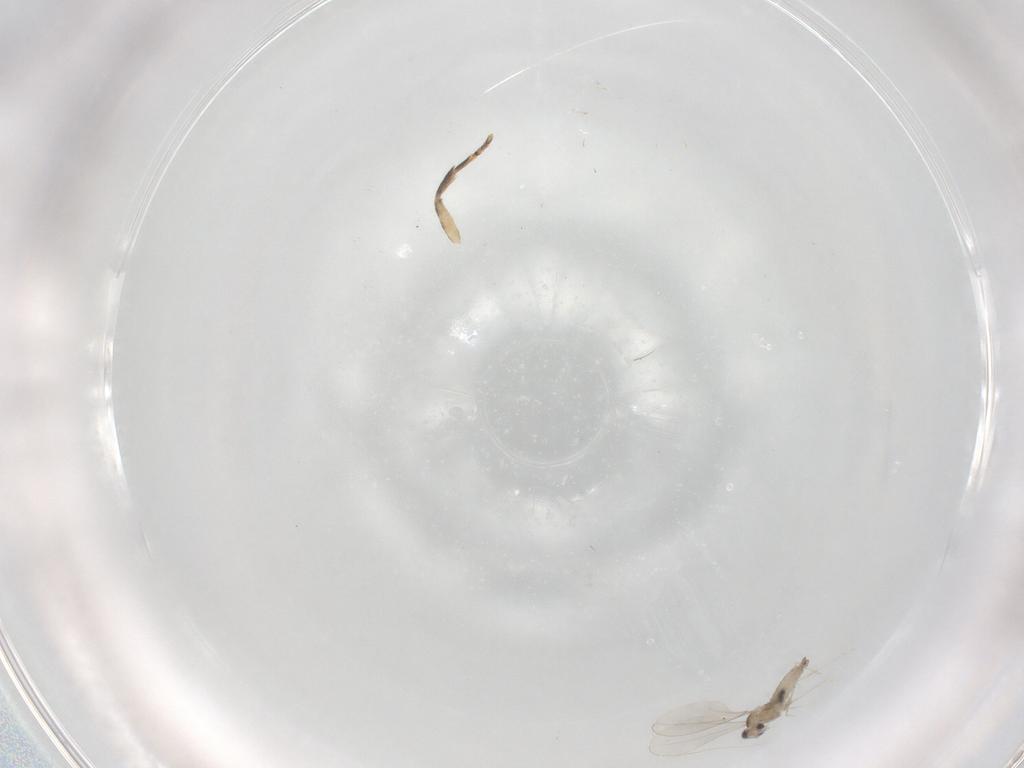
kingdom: Animalia
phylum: Arthropoda
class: Insecta
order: Diptera
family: Cecidomyiidae
